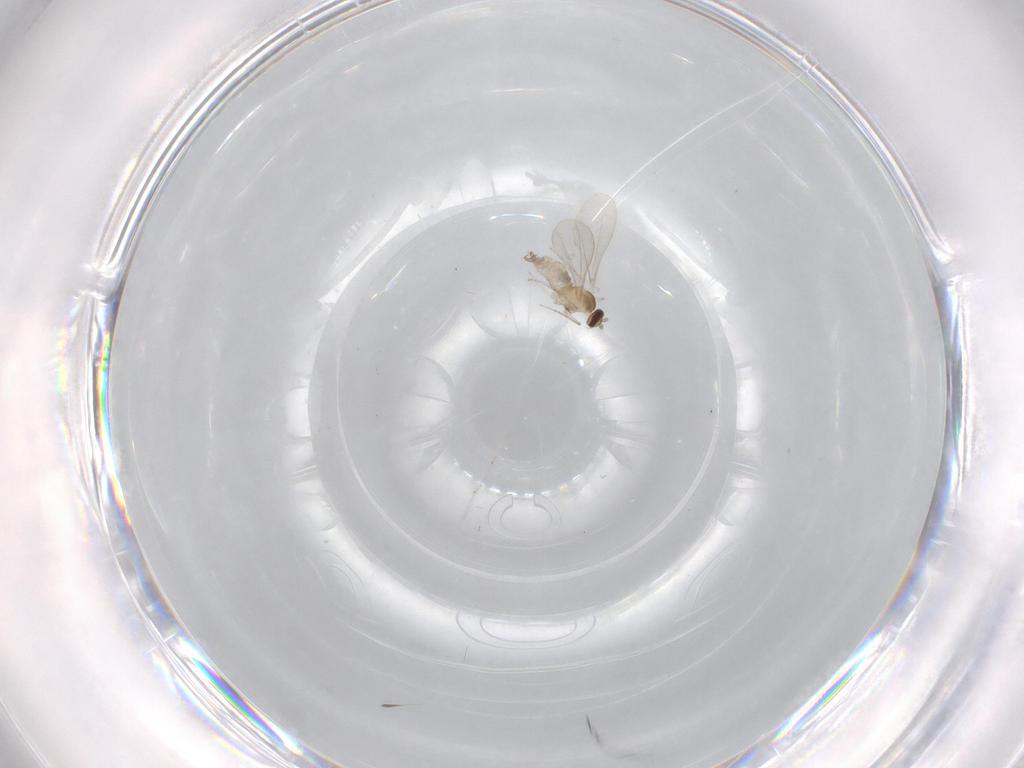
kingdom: Animalia
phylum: Arthropoda
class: Insecta
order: Diptera
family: Cecidomyiidae
